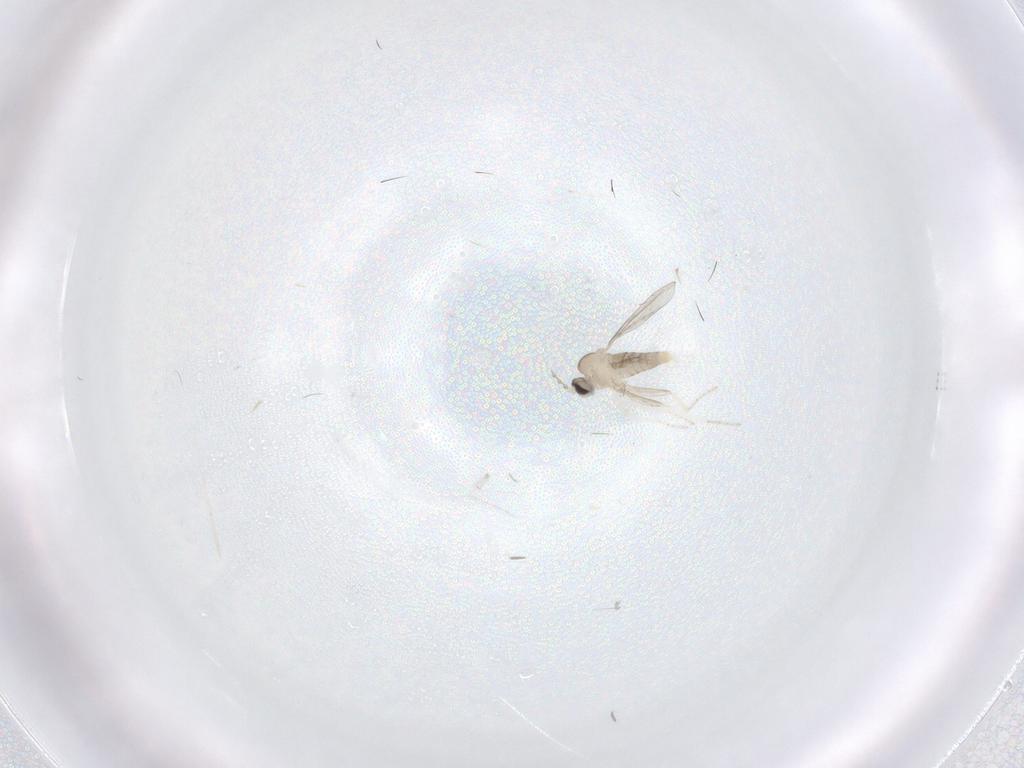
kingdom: Animalia
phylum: Arthropoda
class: Insecta
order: Diptera
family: Cecidomyiidae
